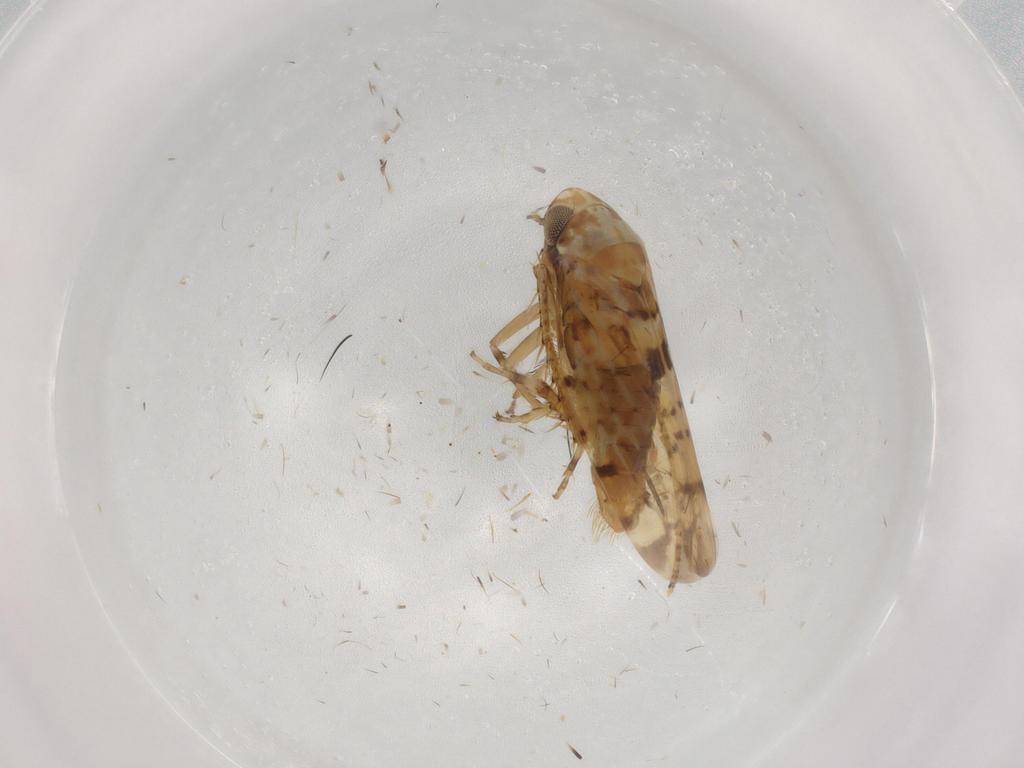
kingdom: Animalia
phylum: Arthropoda
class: Insecta
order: Hemiptera
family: Cicadellidae
